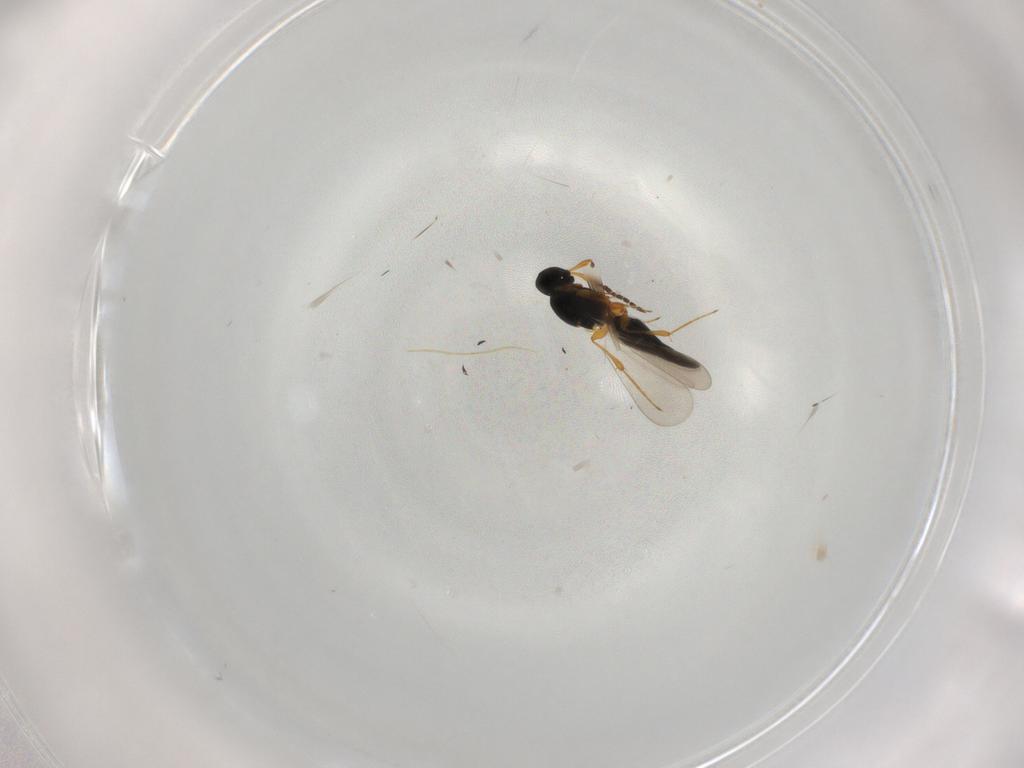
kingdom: Animalia
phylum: Arthropoda
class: Insecta
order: Hymenoptera
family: Platygastridae
